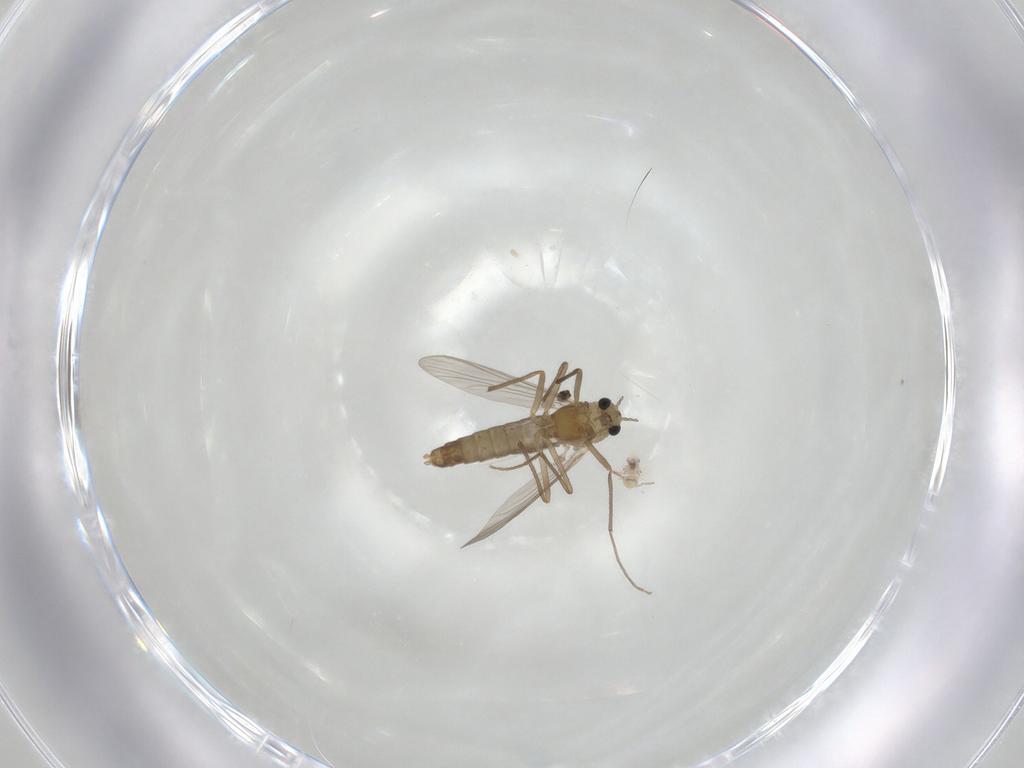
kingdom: Animalia
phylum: Arthropoda
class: Insecta
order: Diptera
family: Chironomidae
